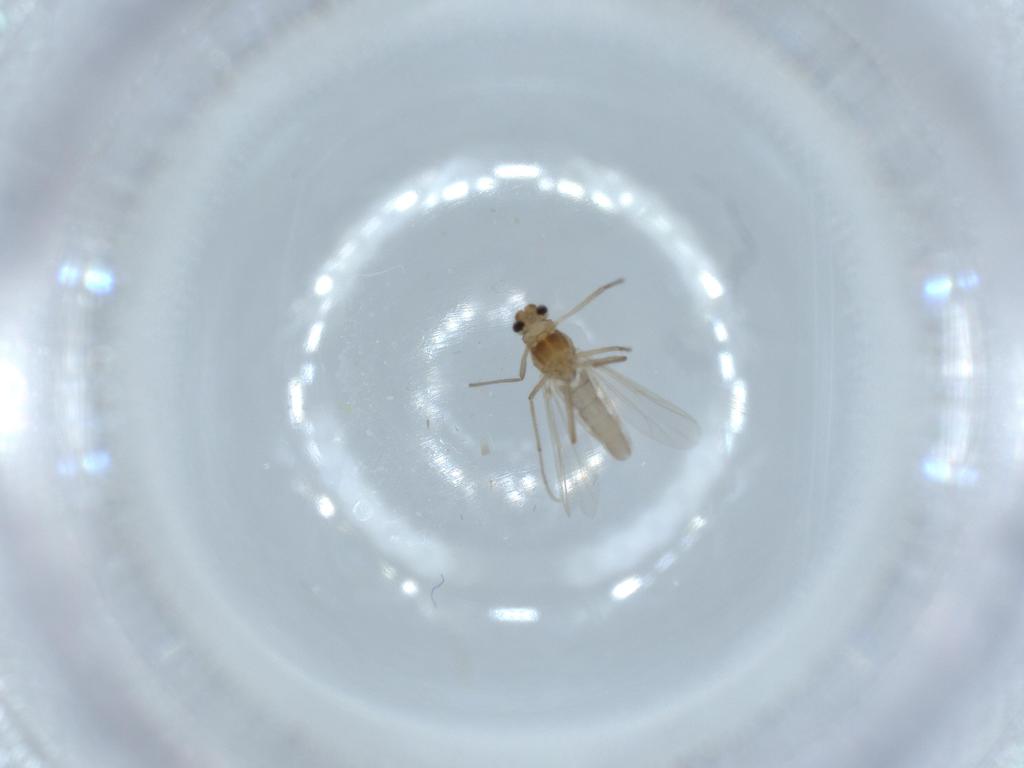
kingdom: Animalia
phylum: Arthropoda
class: Insecta
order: Diptera
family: Chironomidae
